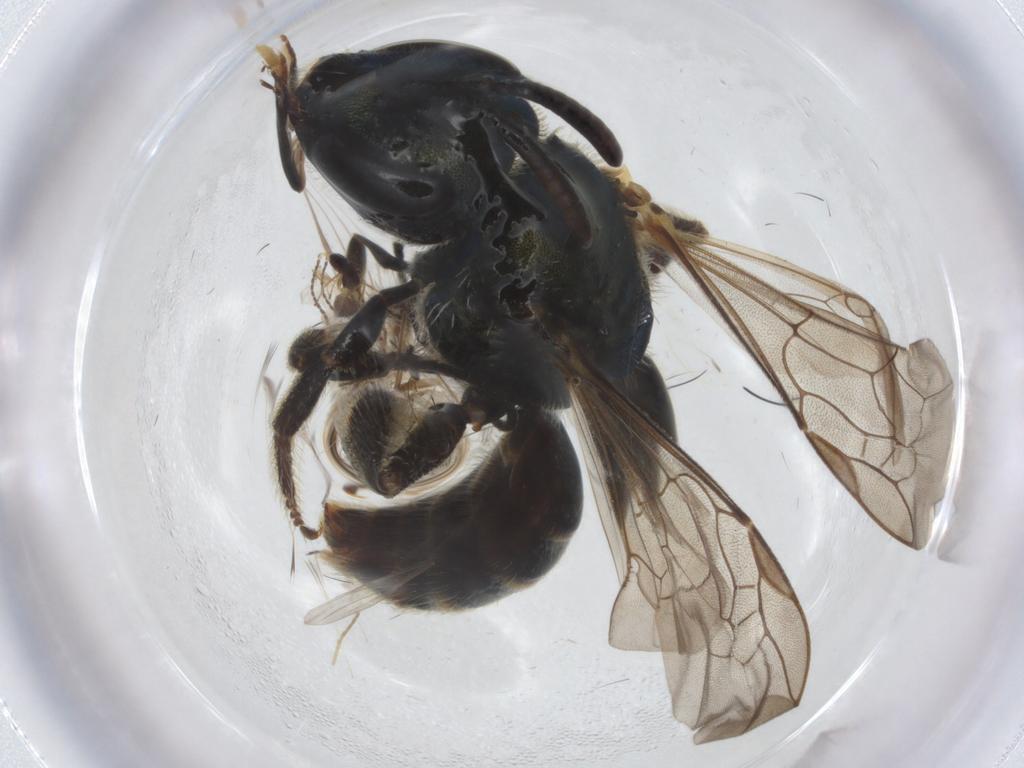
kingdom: Animalia
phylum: Arthropoda
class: Insecta
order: Hymenoptera
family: Ichneumonidae
